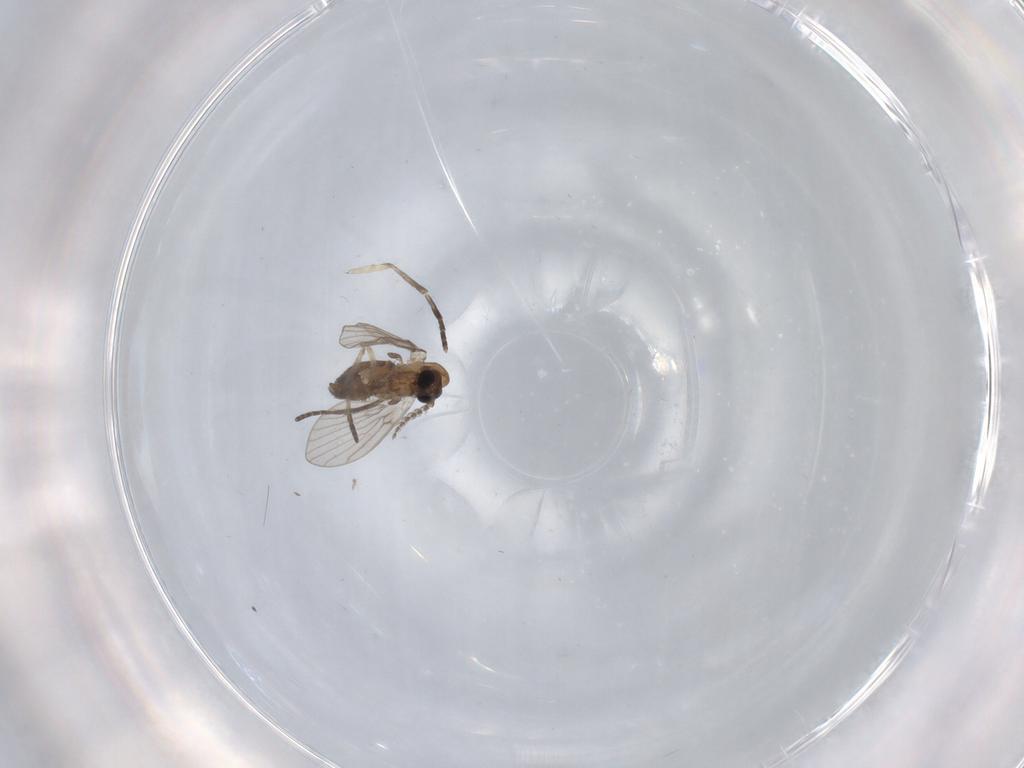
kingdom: Animalia
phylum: Arthropoda
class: Insecta
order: Diptera
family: Psychodidae
